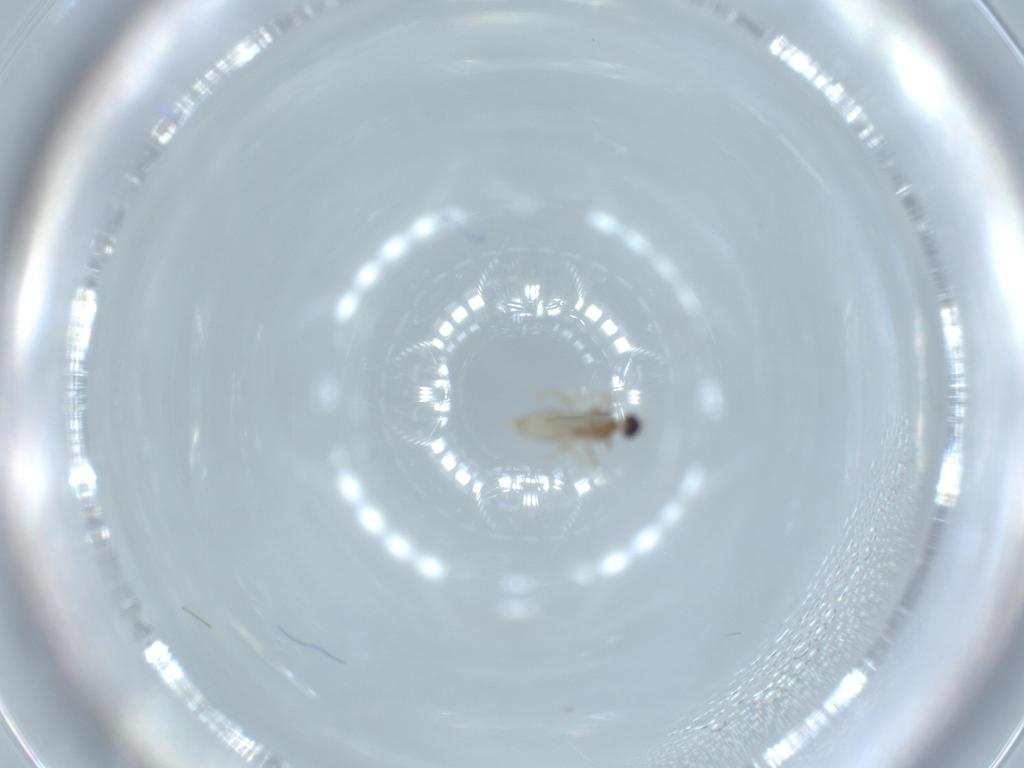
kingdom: Animalia
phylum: Arthropoda
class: Insecta
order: Diptera
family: Cecidomyiidae
